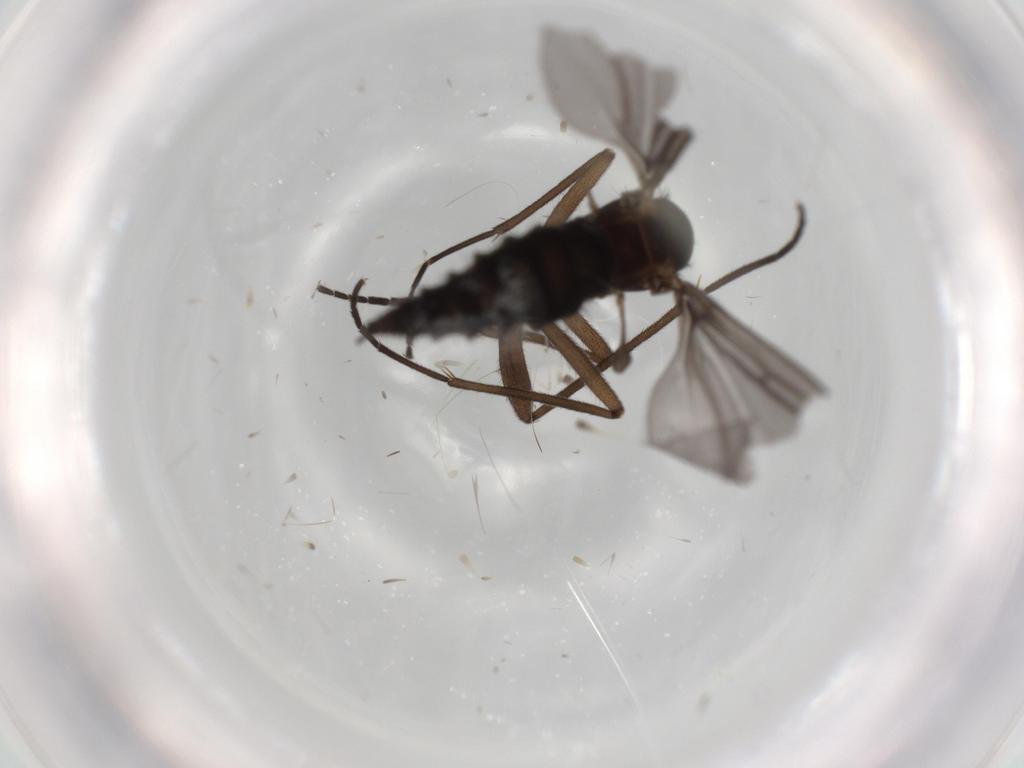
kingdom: Animalia
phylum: Arthropoda
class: Insecta
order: Diptera
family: Sciaridae
